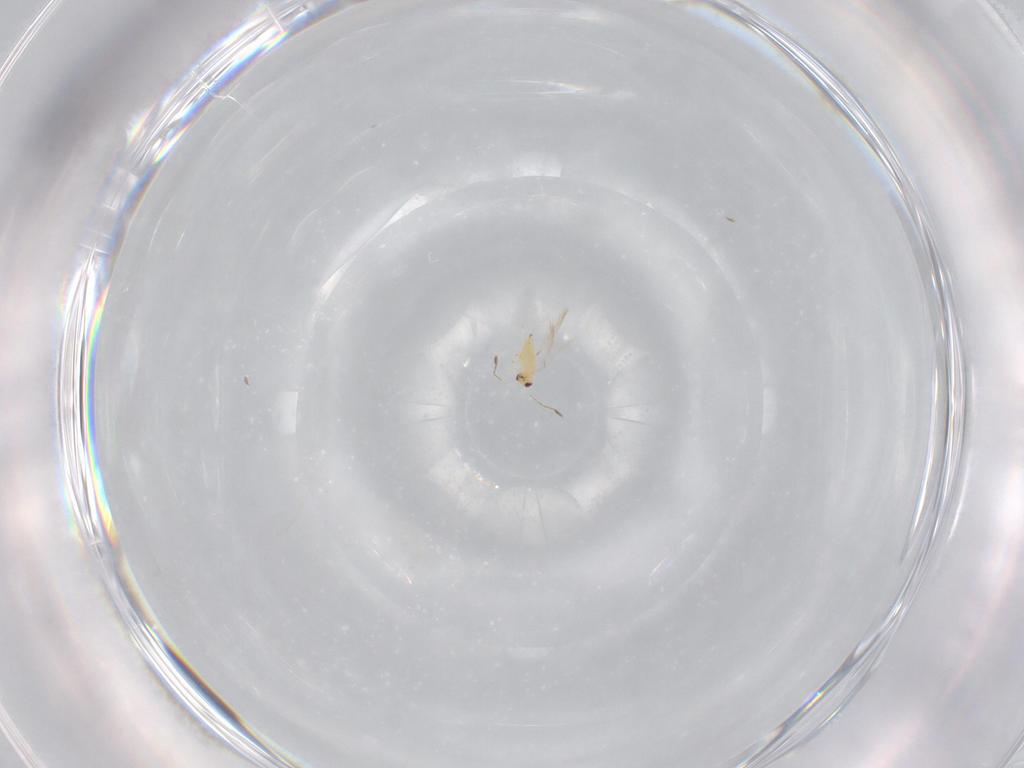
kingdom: Animalia
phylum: Arthropoda
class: Insecta
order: Hymenoptera
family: Mymaridae
